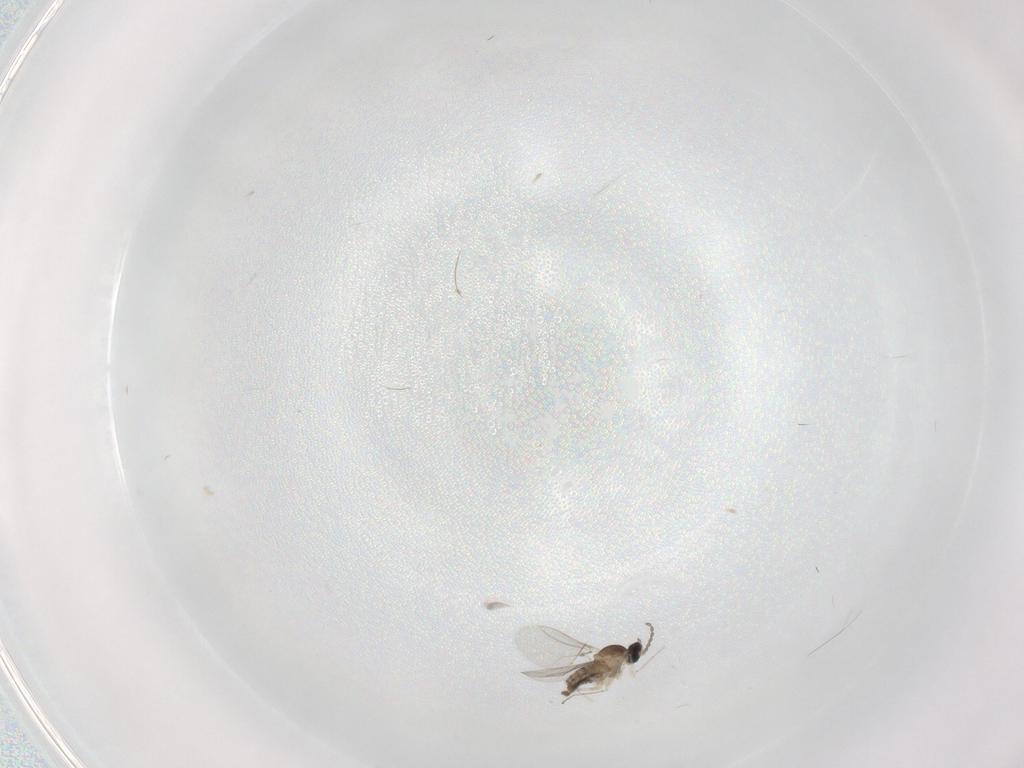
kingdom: Animalia
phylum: Arthropoda
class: Insecta
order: Diptera
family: Cecidomyiidae
